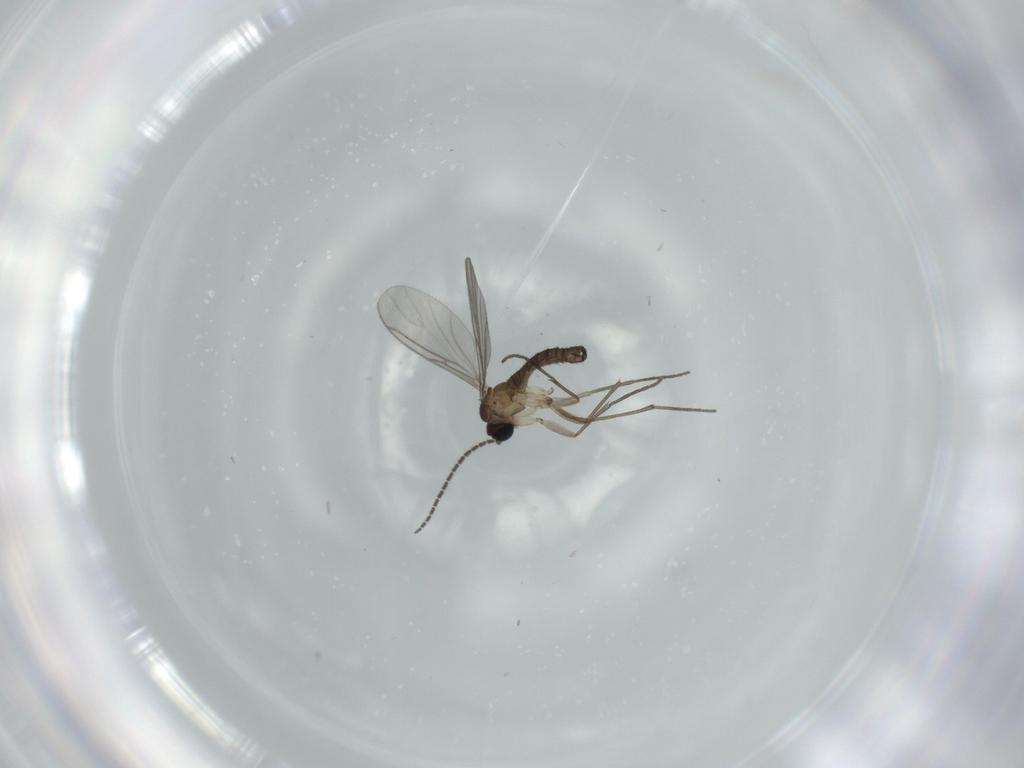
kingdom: Animalia
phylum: Arthropoda
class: Insecta
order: Diptera
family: Sciaridae
